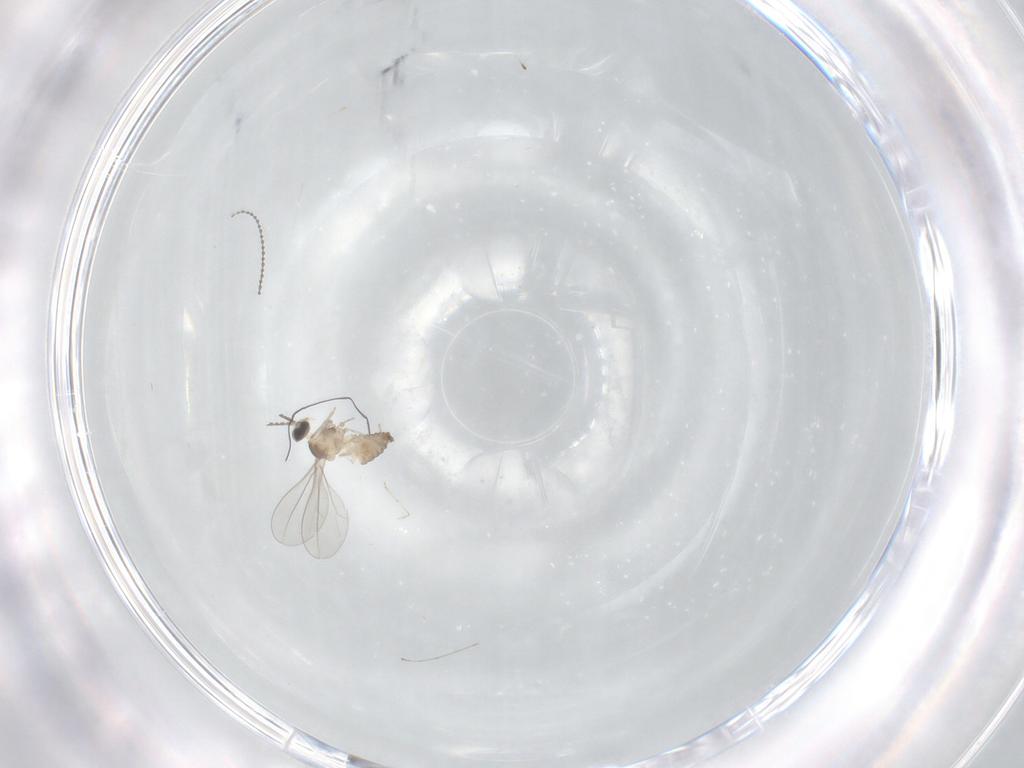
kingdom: Animalia
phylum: Arthropoda
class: Insecta
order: Diptera
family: Cecidomyiidae
